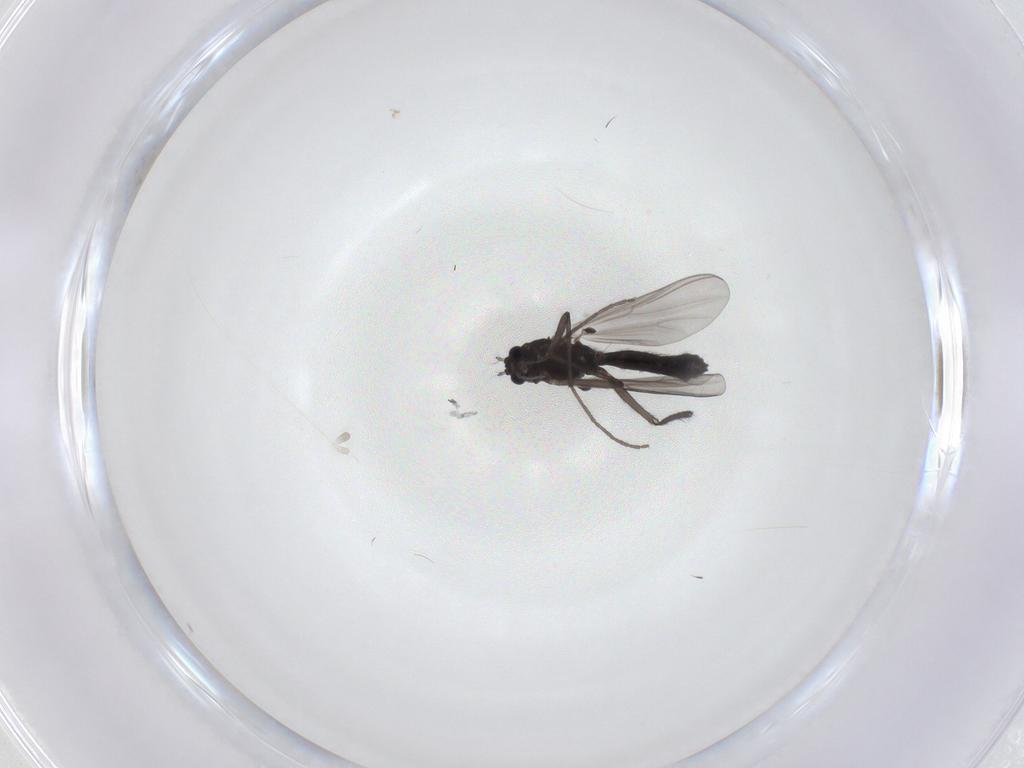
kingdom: Animalia
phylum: Arthropoda
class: Insecta
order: Diptera
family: Chironomidae
